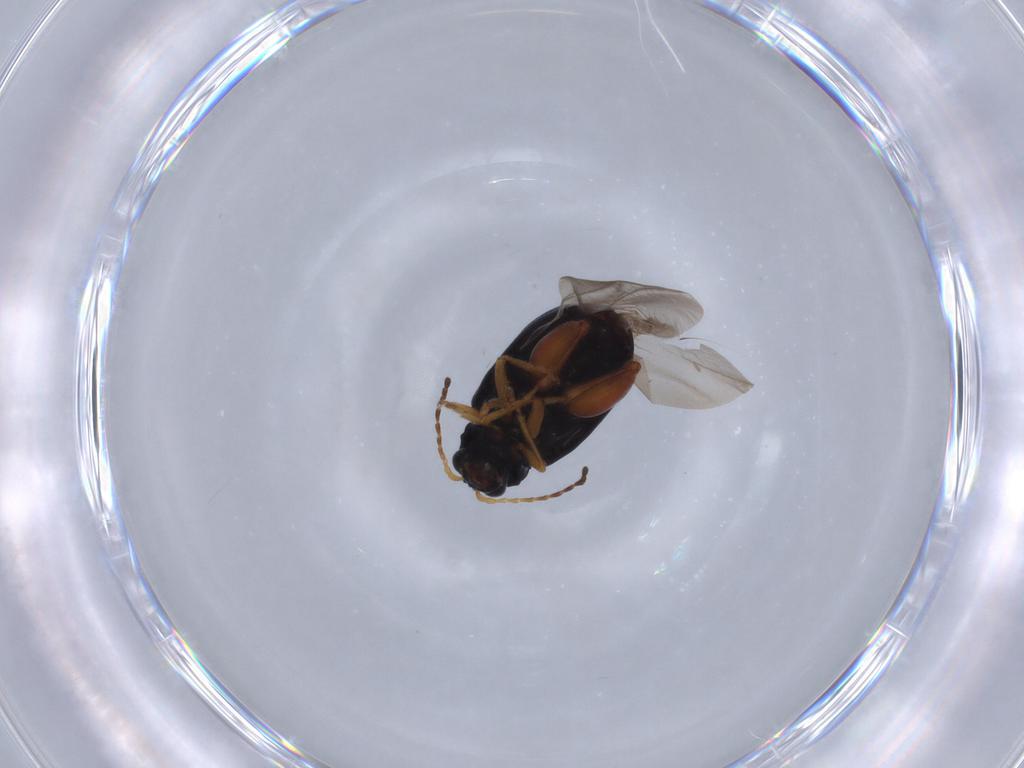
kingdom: Animalia
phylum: Arthropoda
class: Insecta
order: Coleoptera
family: Chrysomelidae
